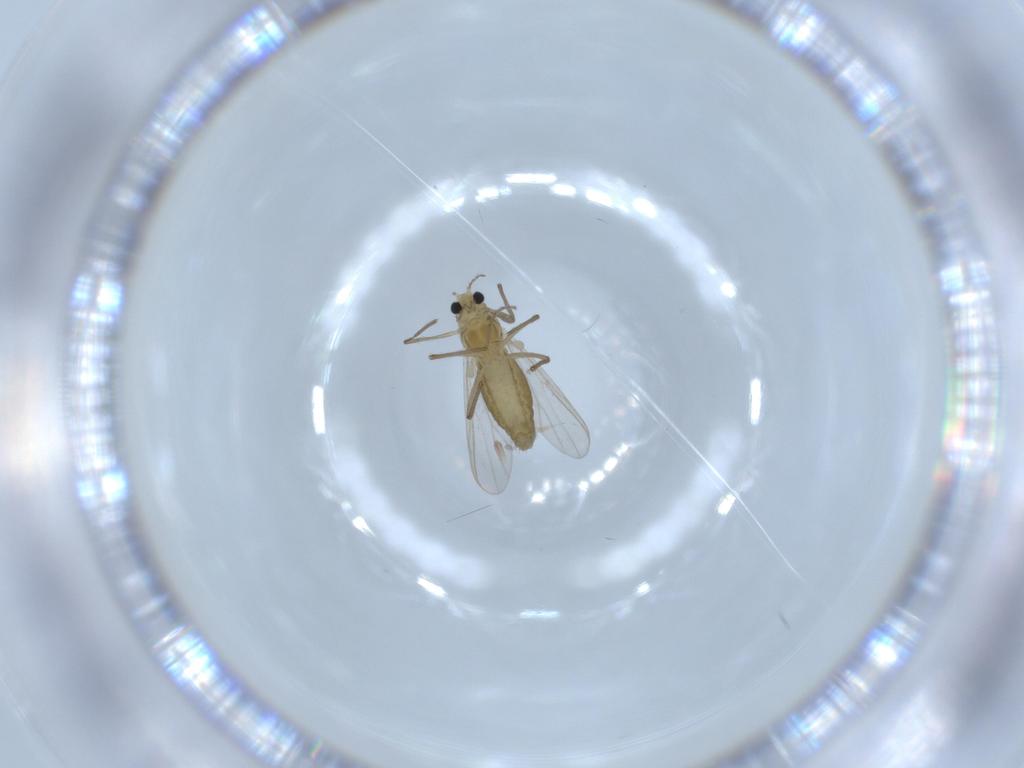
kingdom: Animalia
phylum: Arthropoda
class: Insecta
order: Diptera
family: Chironomidae
